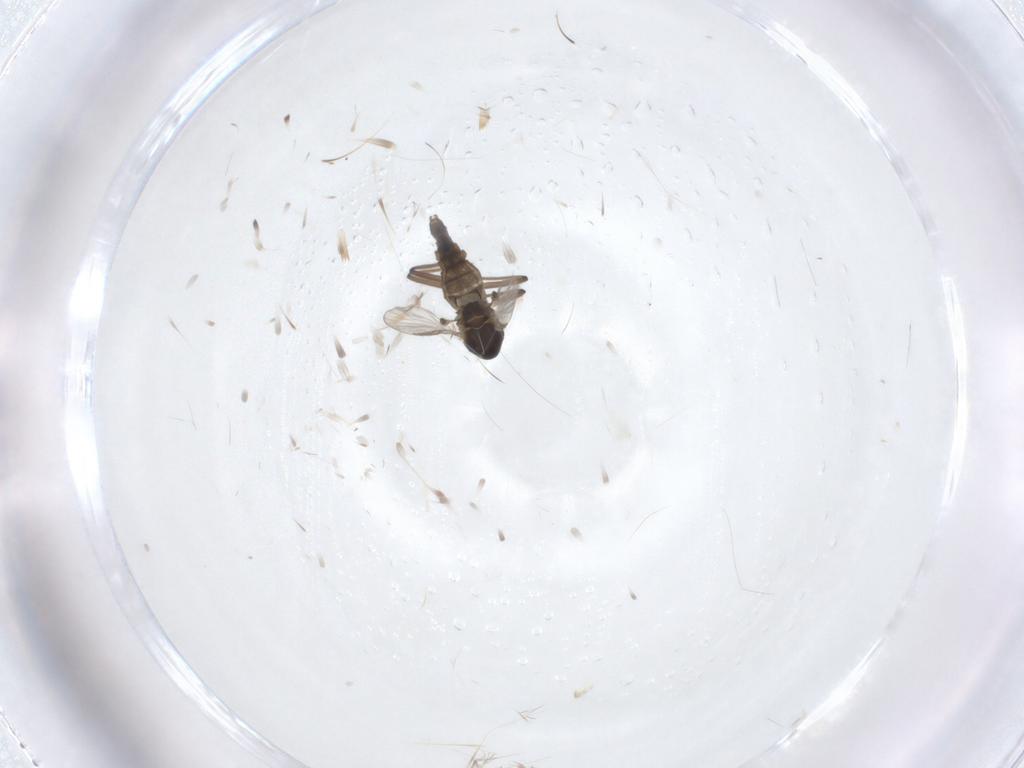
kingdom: Animalia
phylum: Arthropoda
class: Insecta
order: Diptera
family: Chironomidae
